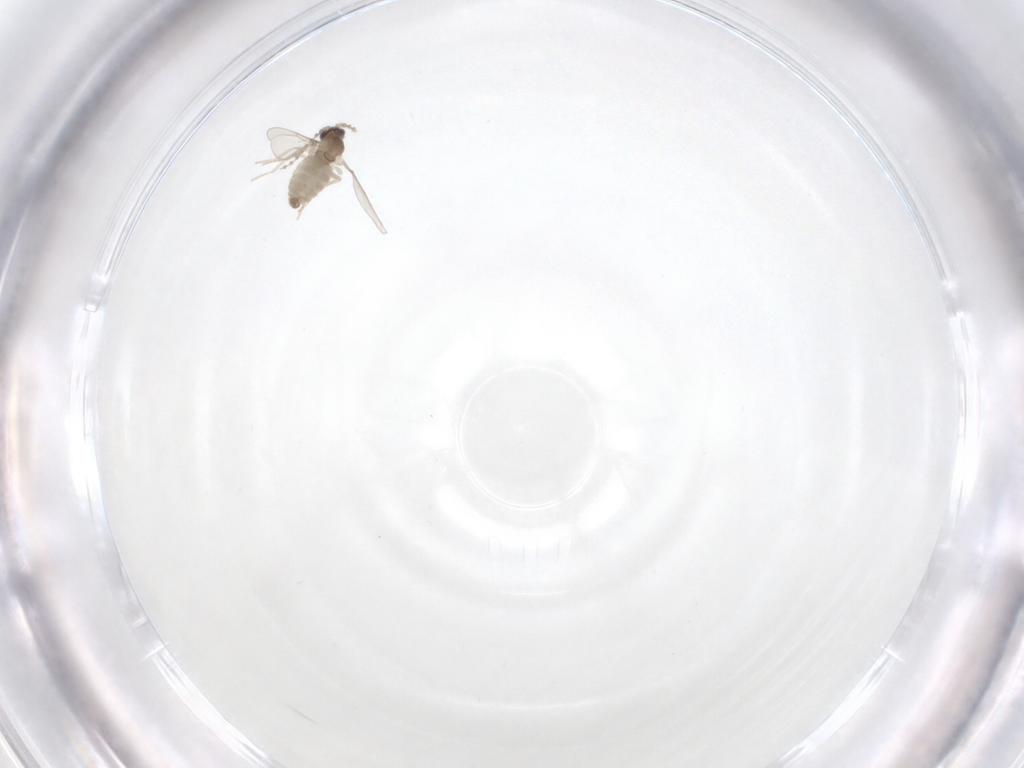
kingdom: Animalia
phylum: Arthropoda
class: Insecta
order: Diptera
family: Cecidomyiidae
